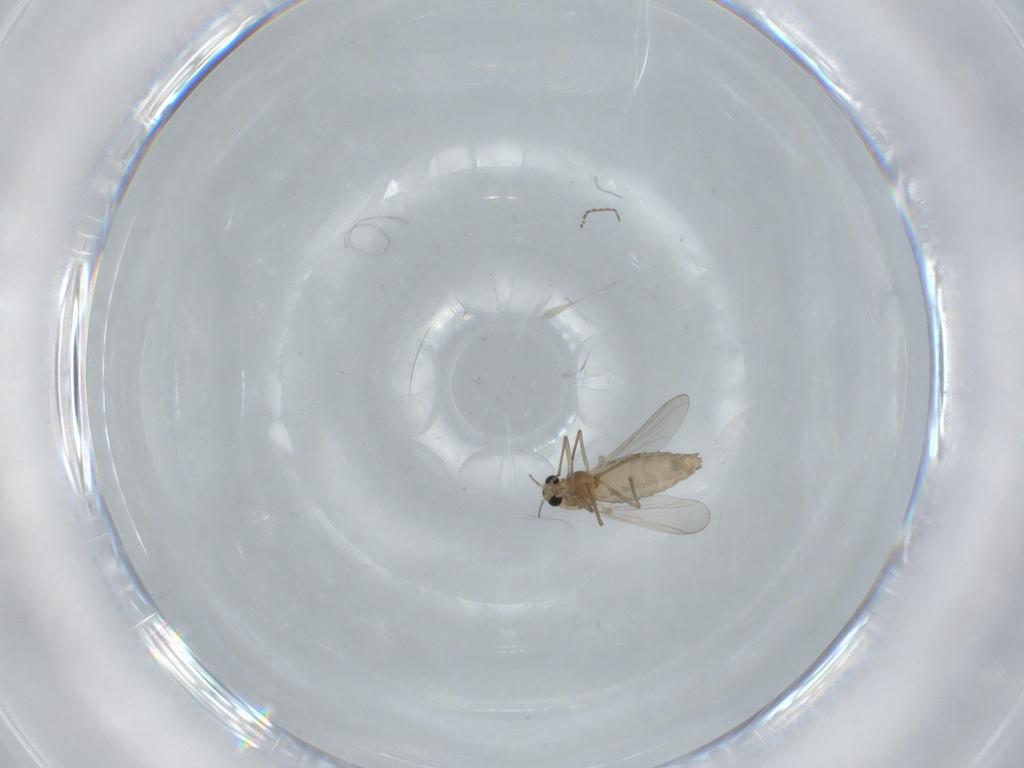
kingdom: Animalia
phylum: Arthropoda
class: Insecta
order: Diptera
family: Chironomidae
